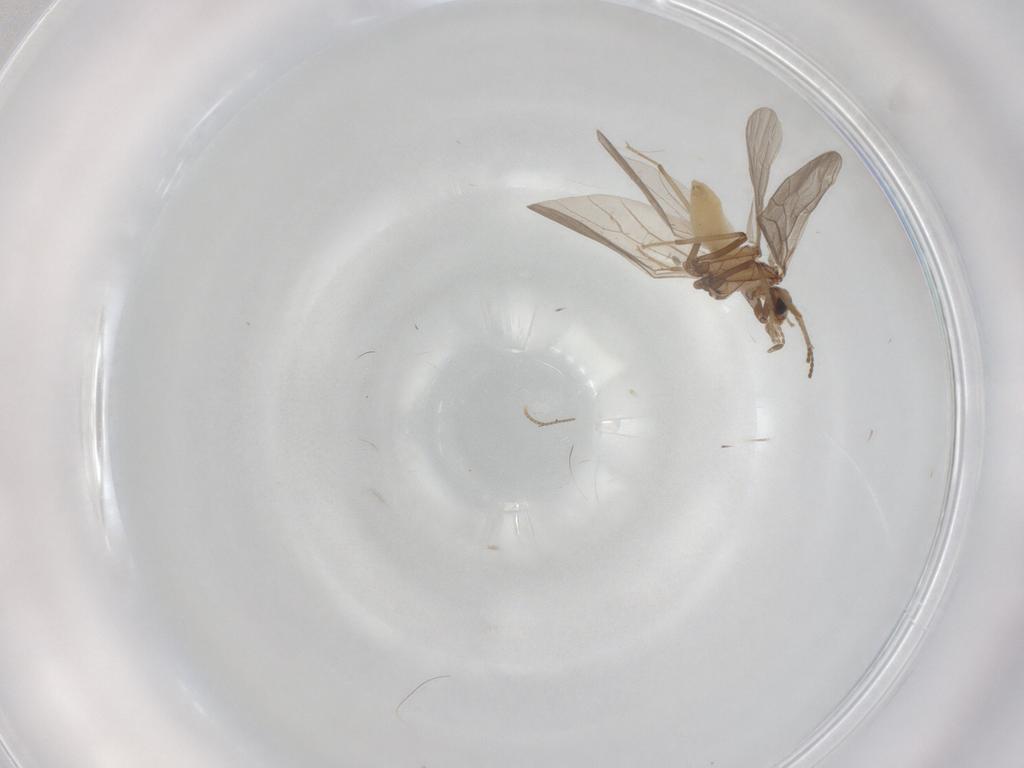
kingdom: Animalia
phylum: Arthropoda
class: Insecta
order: Neuroptera
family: Coniopterygidae
